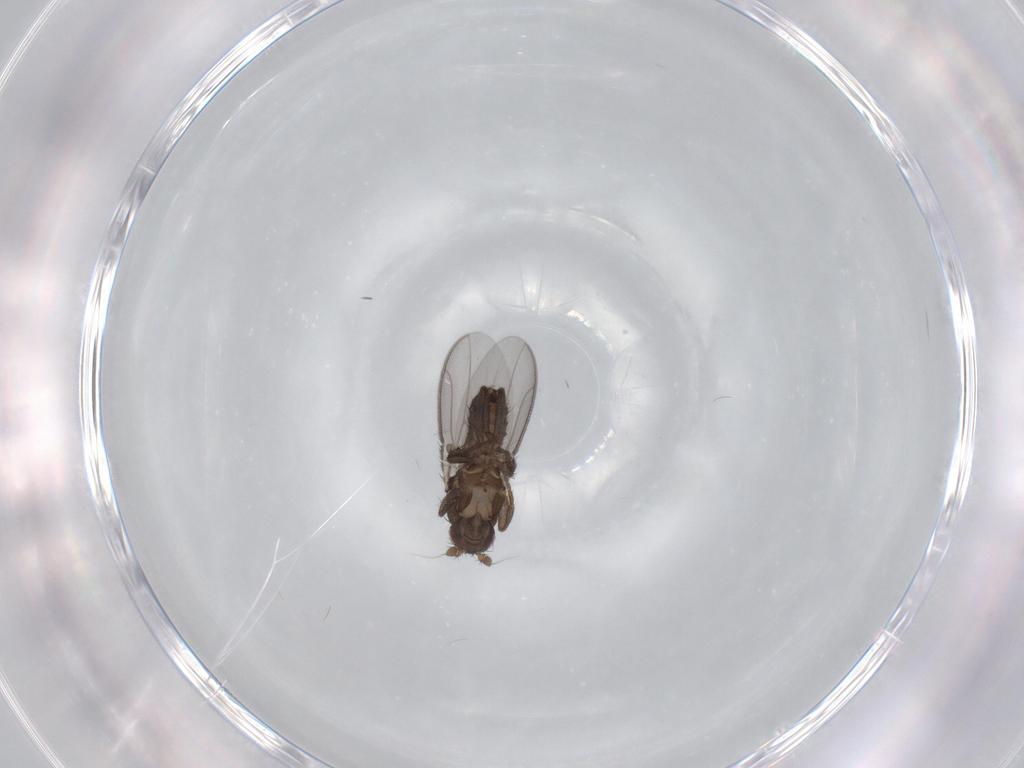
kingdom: Animalia
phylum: Arthropoda
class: Insecta
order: Diptera
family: Sphaeroceridae
